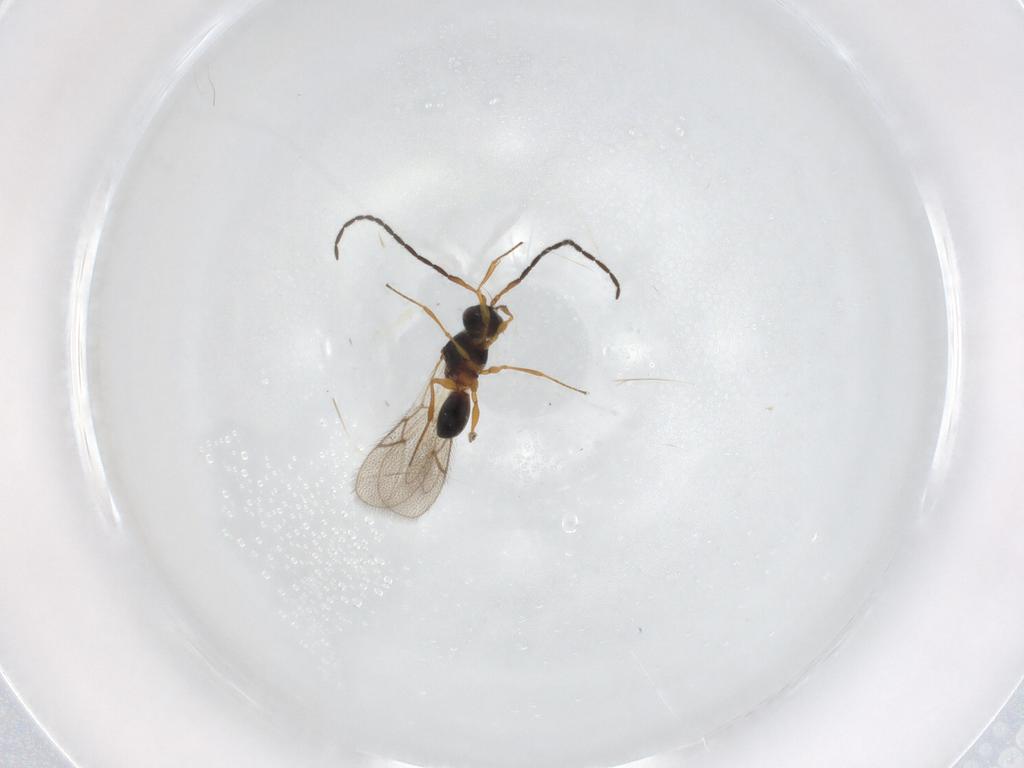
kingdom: Animalia
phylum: Arthropoda
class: Insecta
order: Hymenoptera
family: Figitidae
